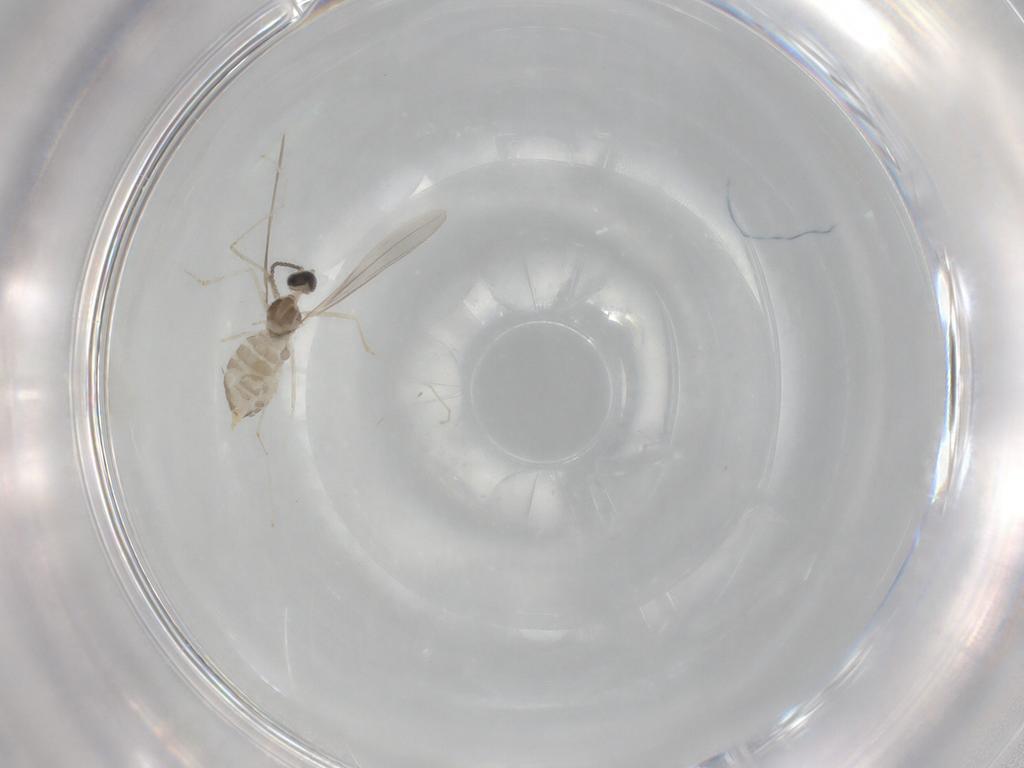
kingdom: Animalia
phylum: Arthropoda
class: Insecta
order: Diptera
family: Cecidomyiidae
